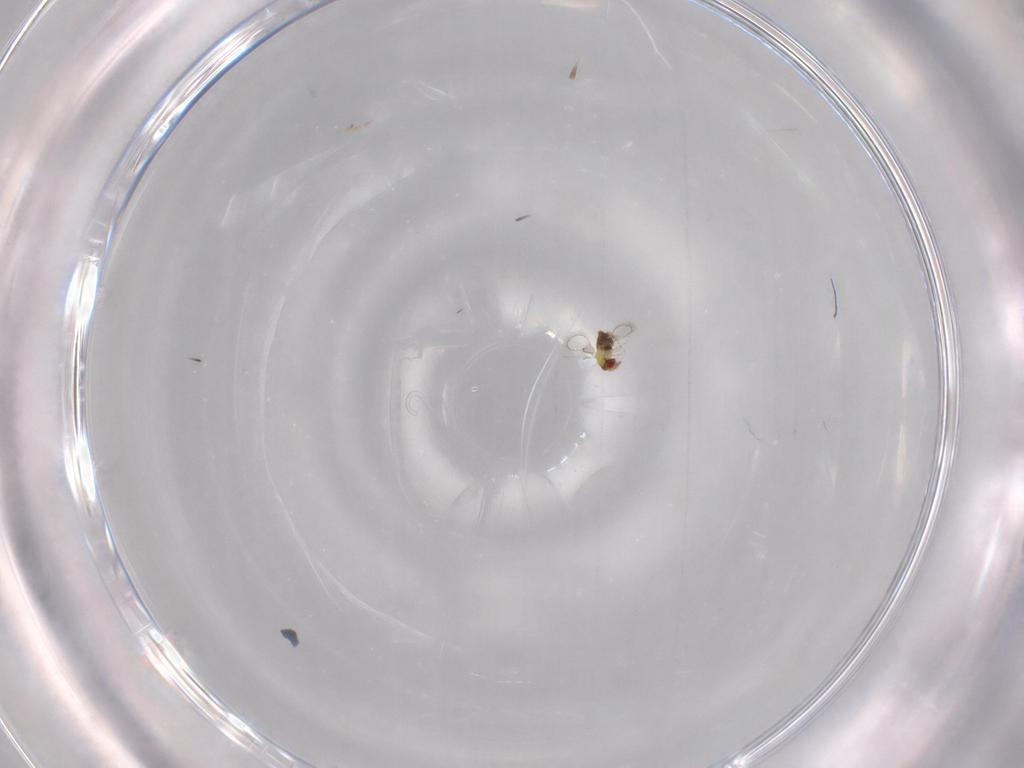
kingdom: Animalia
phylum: Arthropoda
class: Insecta
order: Hymenoptera
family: Trichogrammatidae
